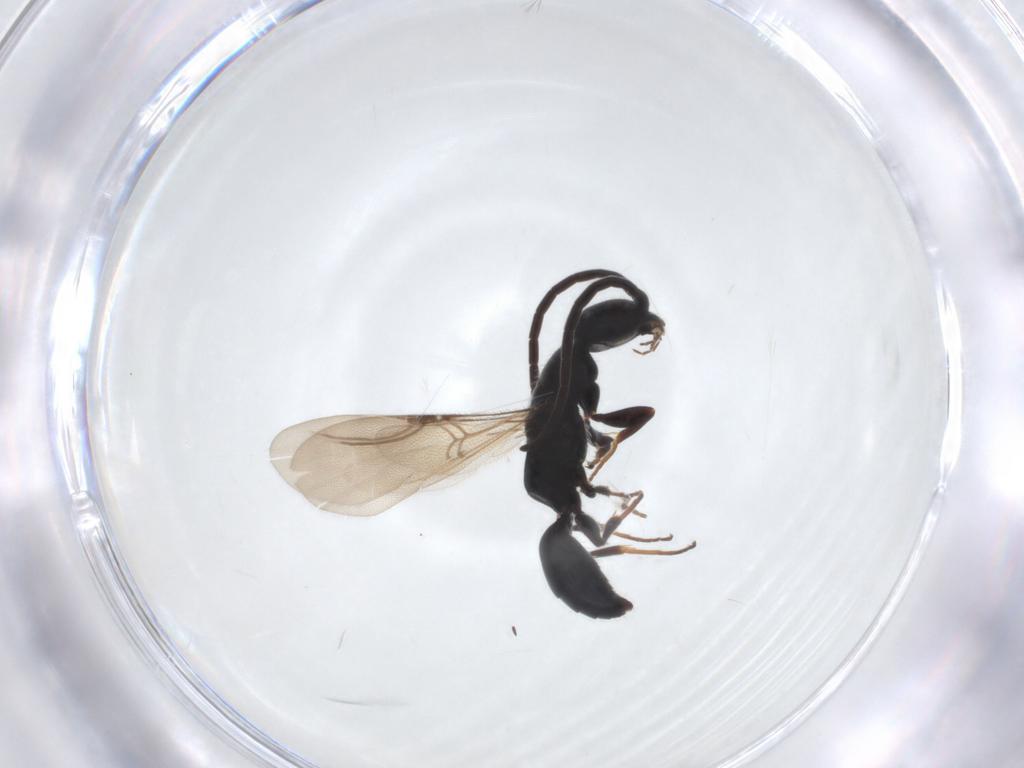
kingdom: Animalia
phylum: Arthropoda
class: Insecta
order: Hymenoptera
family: Bethylidae
